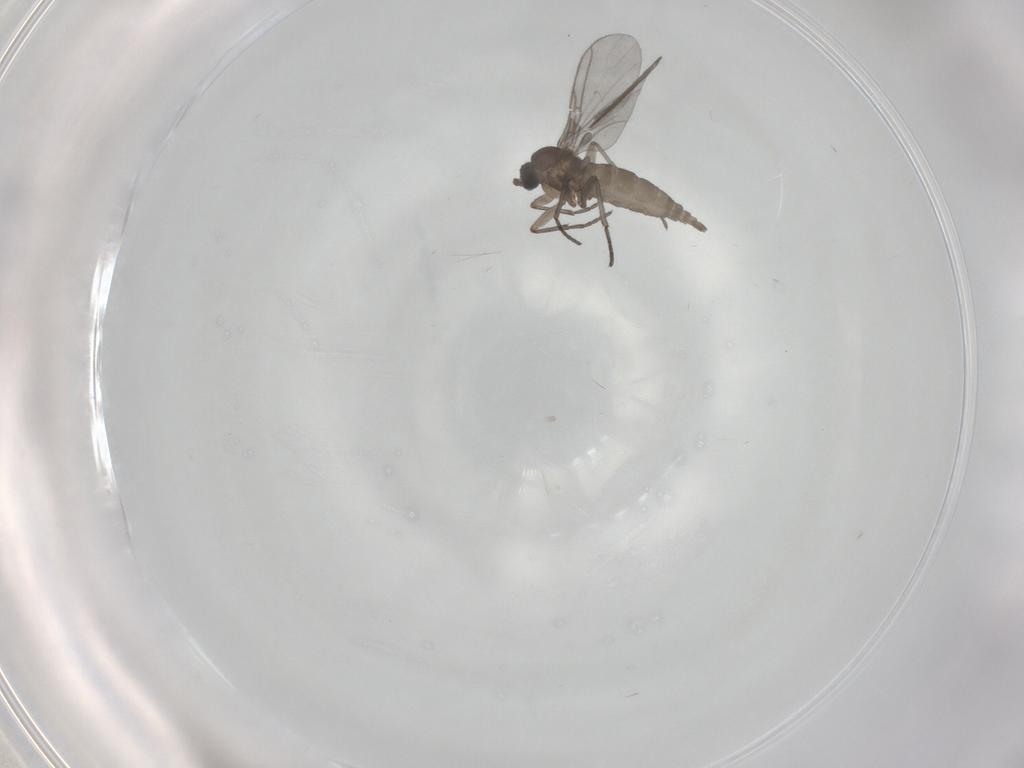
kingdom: Animalia
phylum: Arthropoda
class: Insecta
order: Diptera
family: Sciaridae
